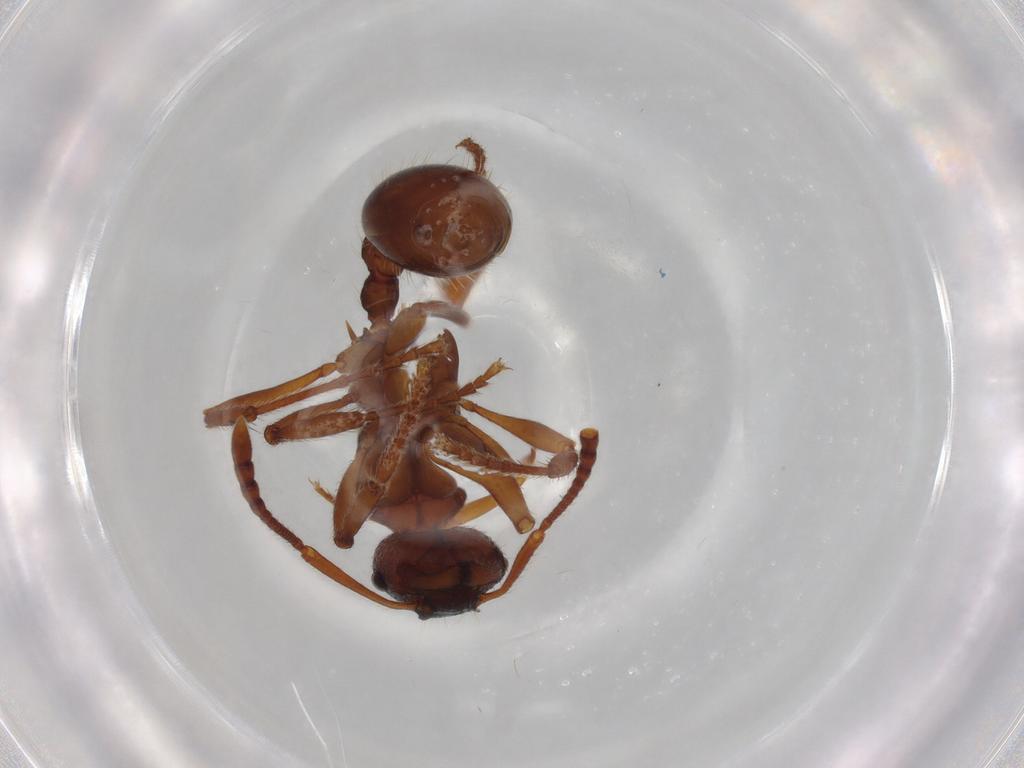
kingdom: Animalia
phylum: Arthropoda
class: Insecta
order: Hymenoptera
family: Formicidae
